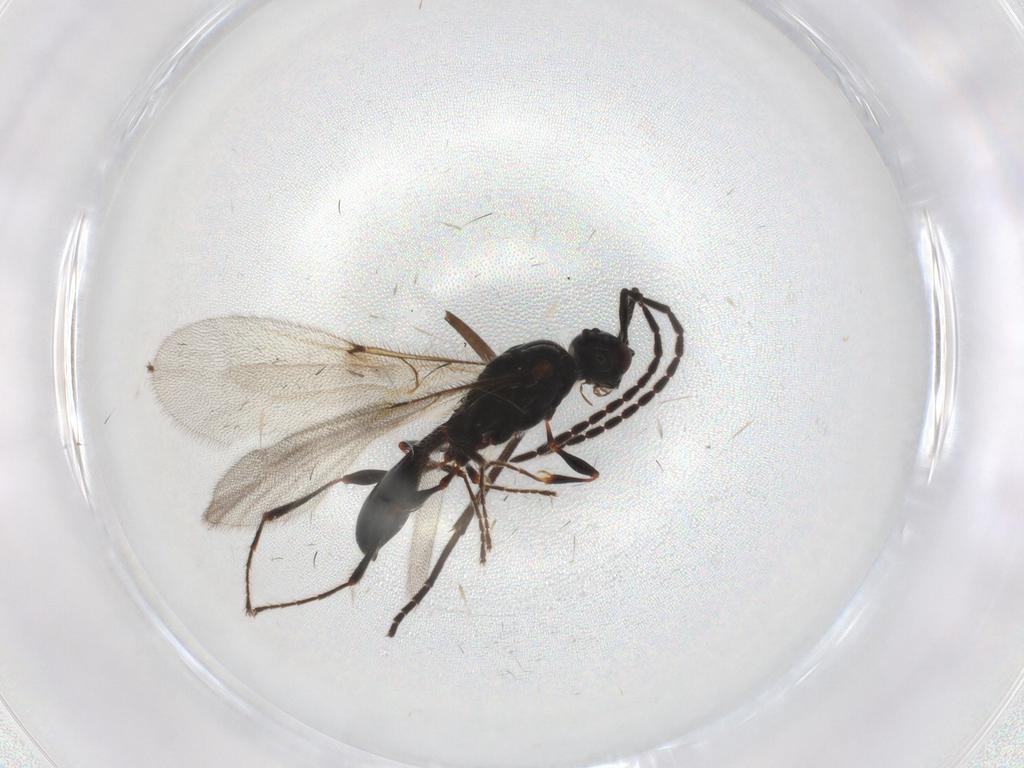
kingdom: Animalia
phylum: Arthropoda
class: Insecta
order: Hymenoptera
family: Diapriidae
